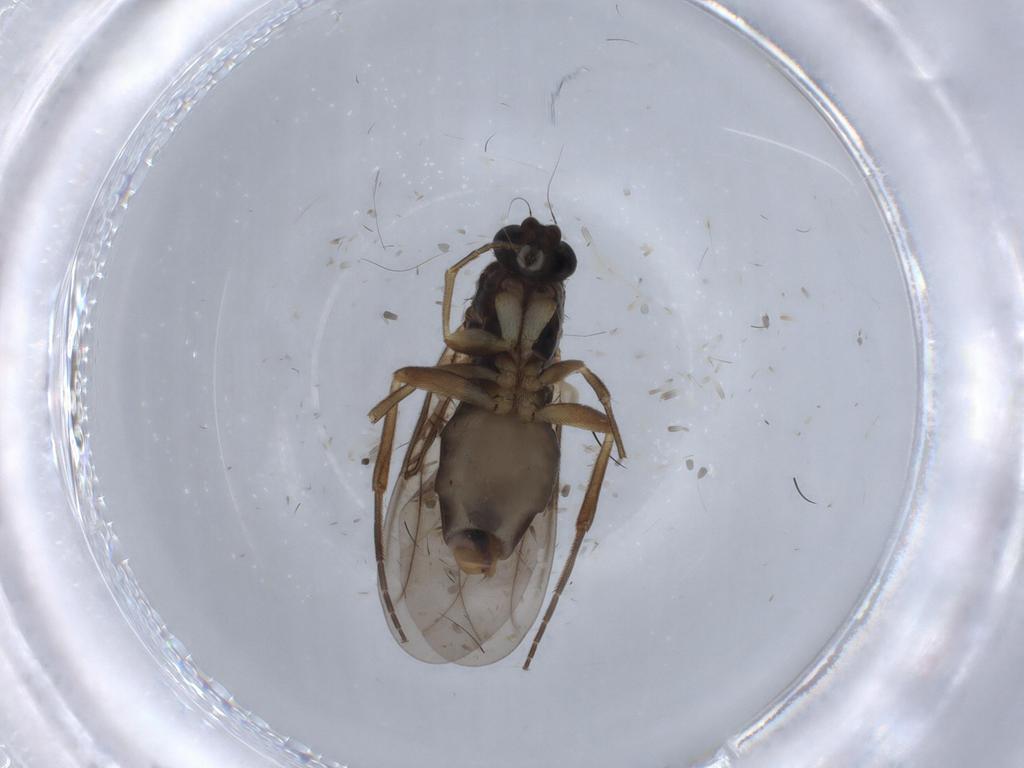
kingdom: Animalia
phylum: Arthropoda
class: Insecta
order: Diptera
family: Phoridae
